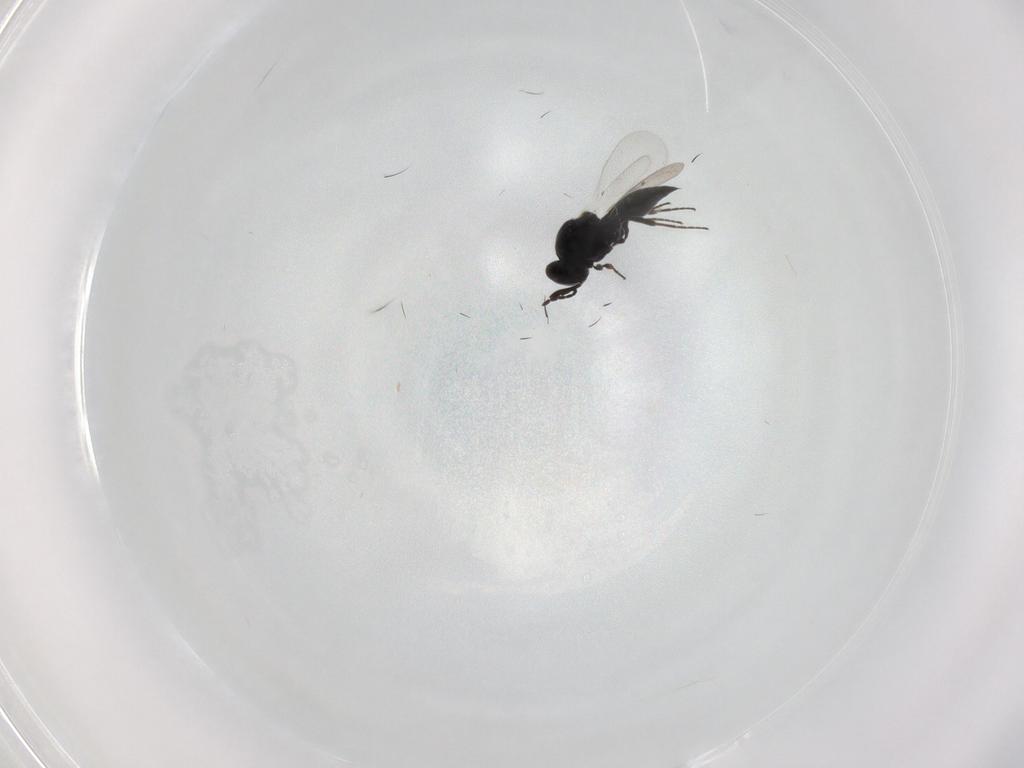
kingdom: Animalia
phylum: Arthropoda
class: Insecta
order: Hymenoptera
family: Platygastridae
